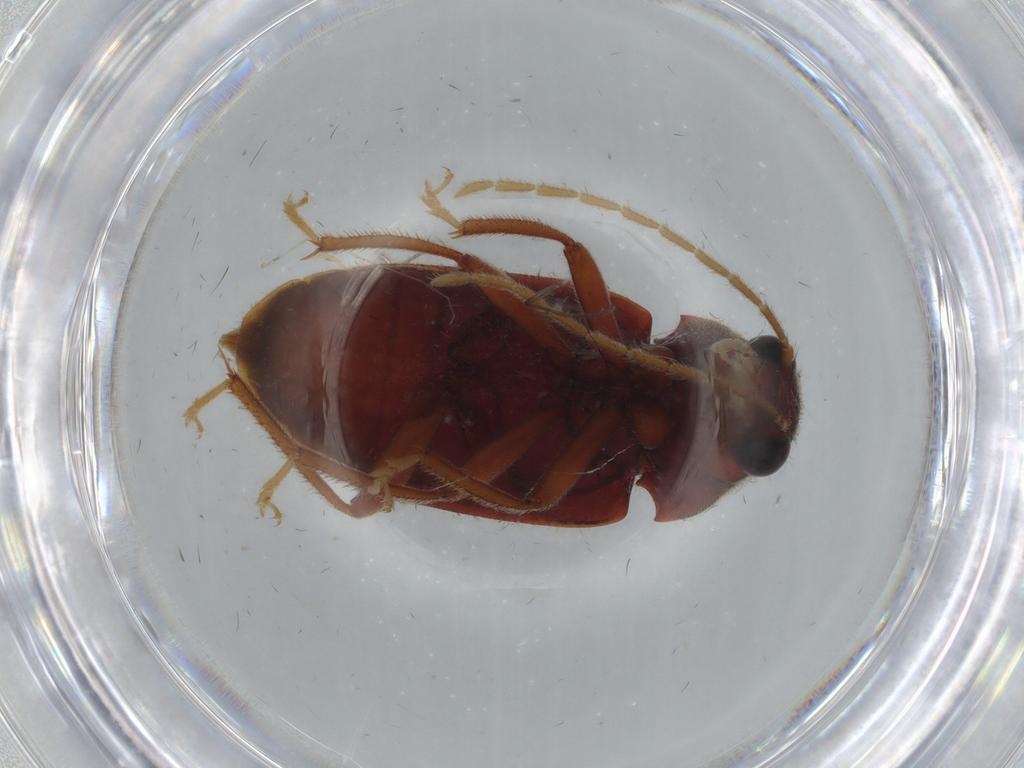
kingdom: Animalia
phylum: Arthropoda
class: Insecta
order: Coleoptera
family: Ptilodactylidae
